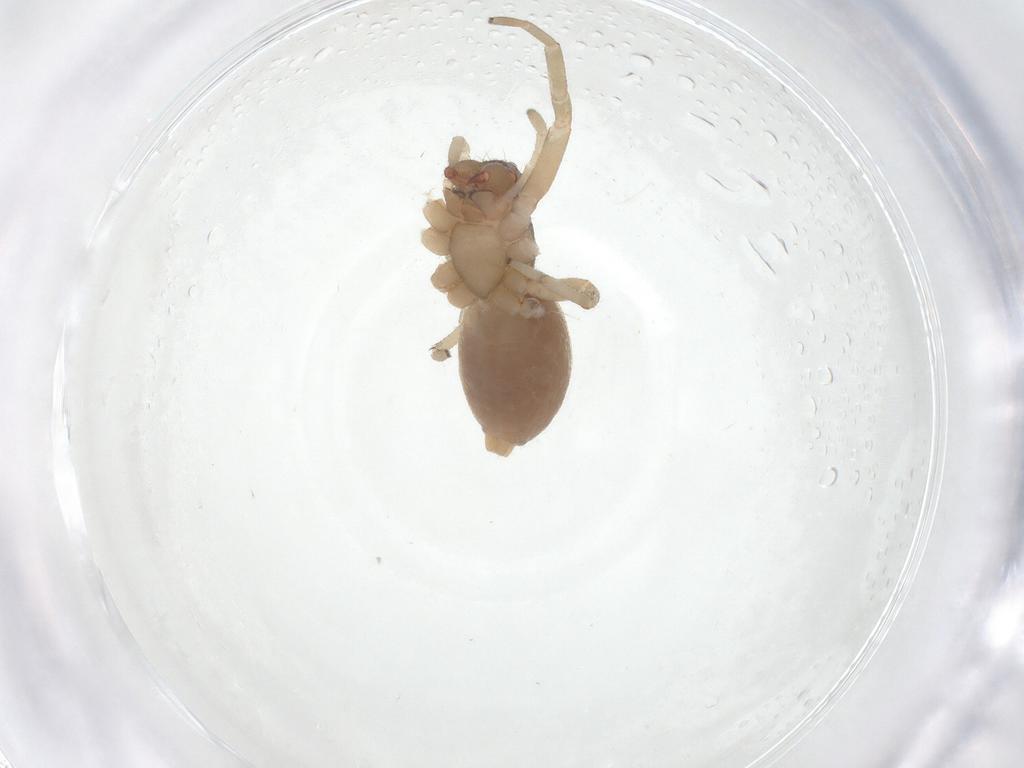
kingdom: Animalia
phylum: Arthropoda
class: Arachnida
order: Araneae
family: Trachelidae
